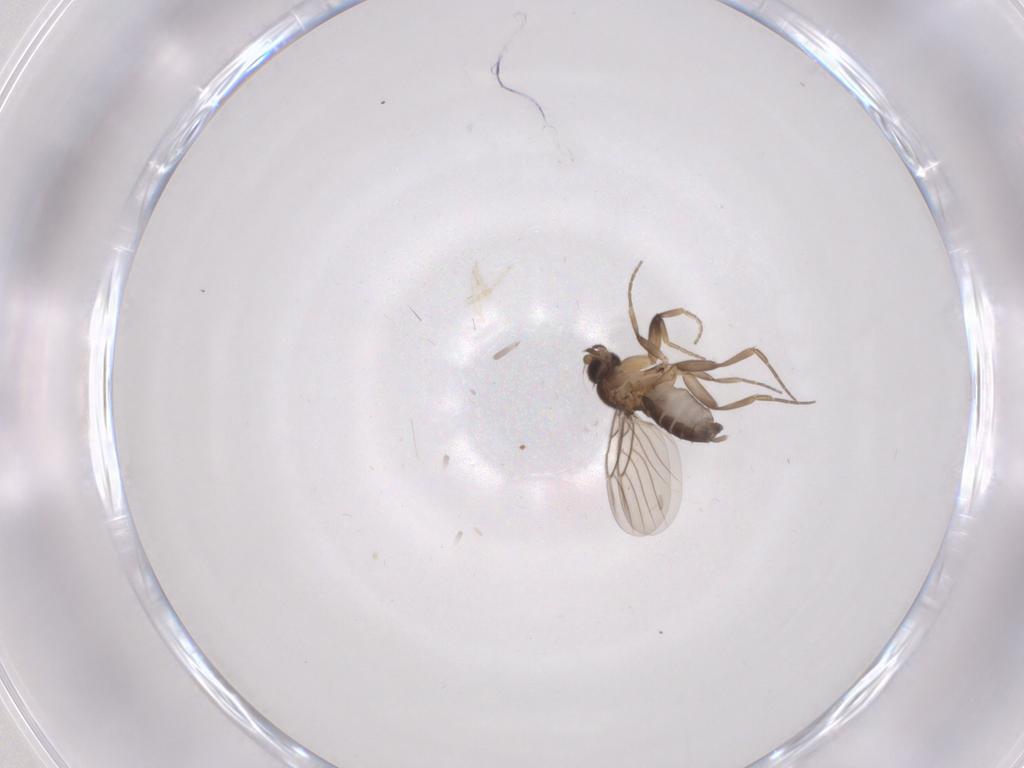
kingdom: Animalia
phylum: Arthropoda
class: Insecta
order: Diptera
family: Phoridae
